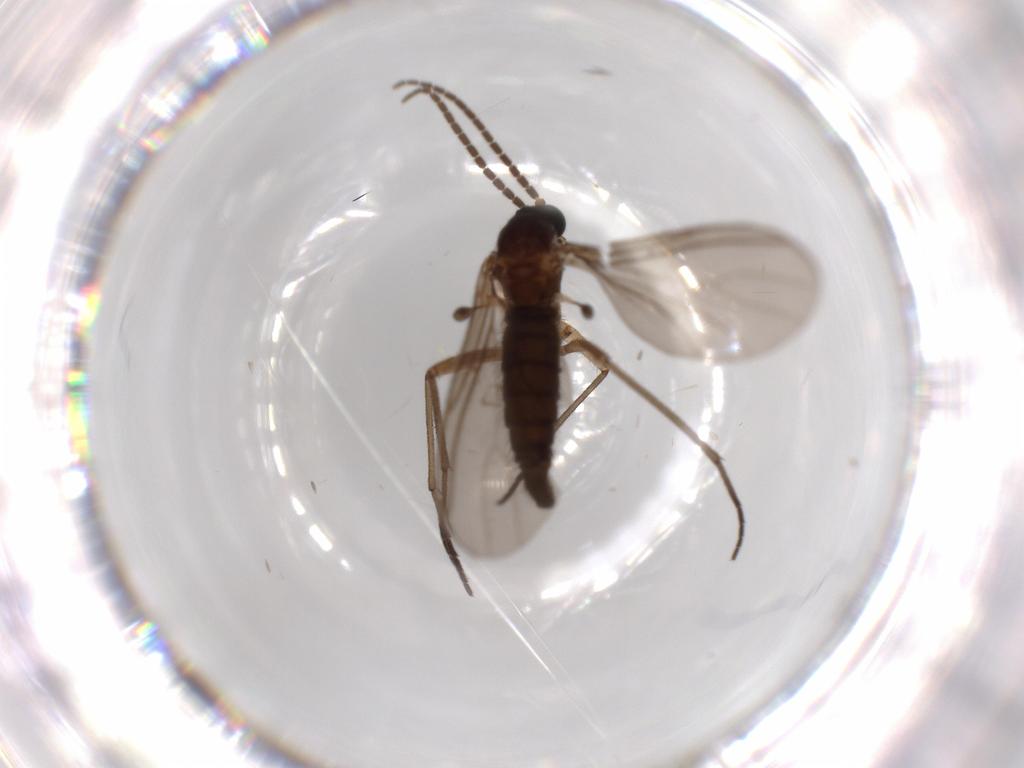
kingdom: Animalia
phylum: Arthropoda
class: Insecta
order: Diptera
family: Sciaridae
